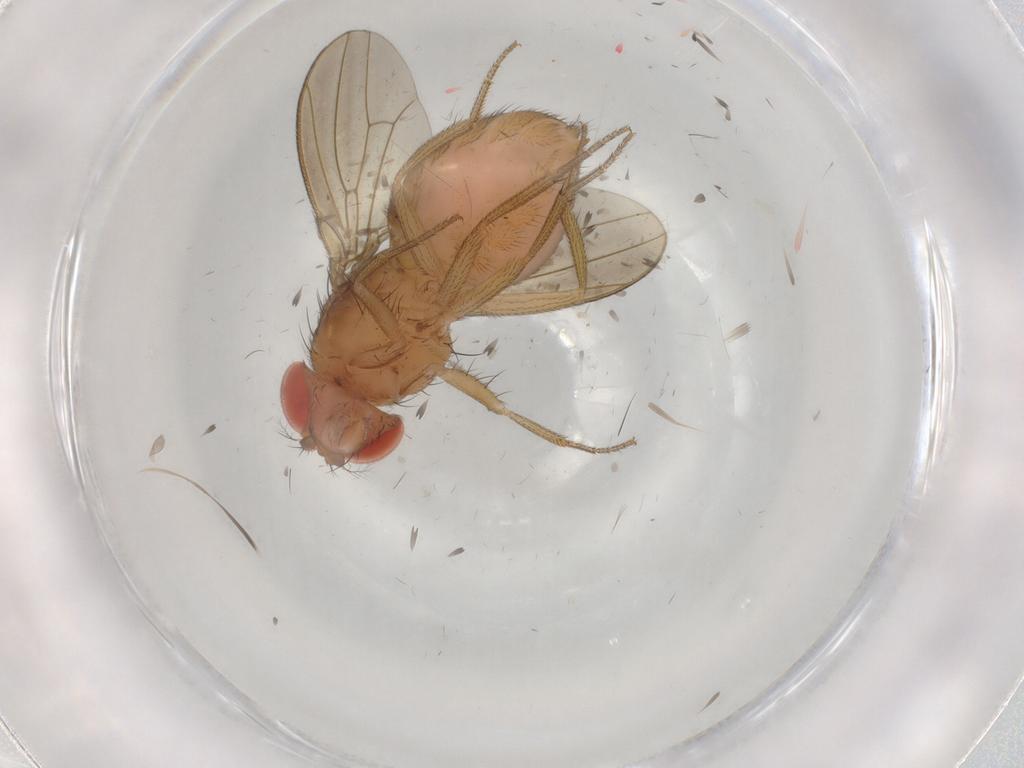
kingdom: Animalia
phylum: Arthropoda
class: Insecta
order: Diptera
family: Drosophilidae
